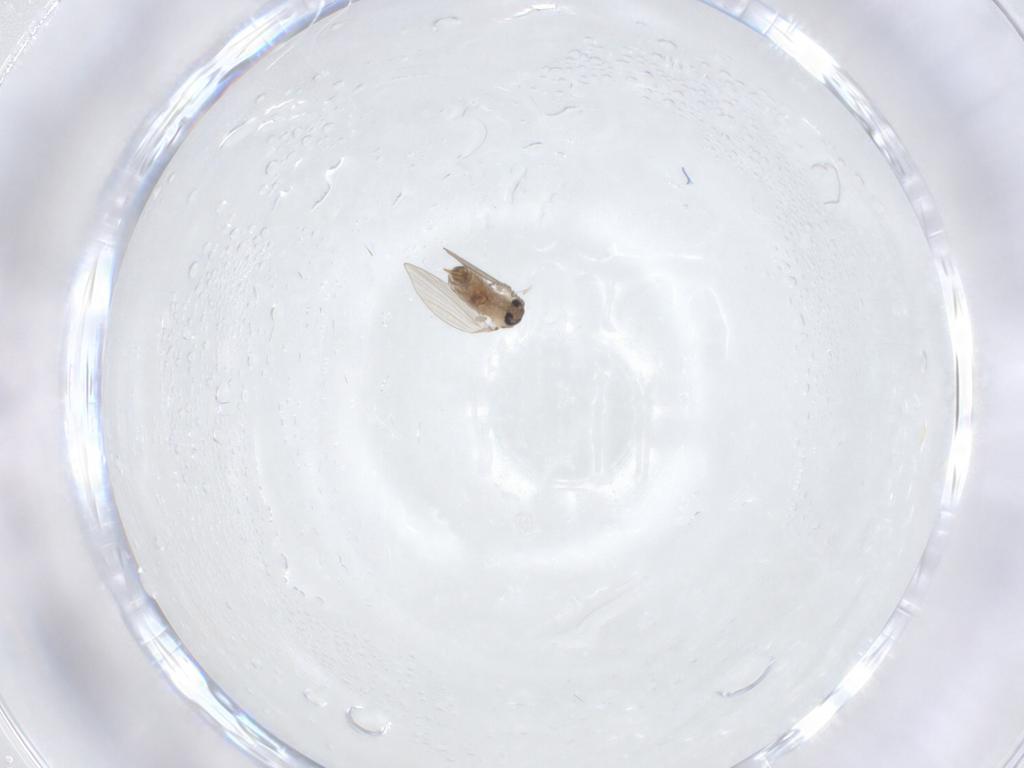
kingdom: Animalia
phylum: Arthropoda
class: Insecta
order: Diptera
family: Psychodidae
